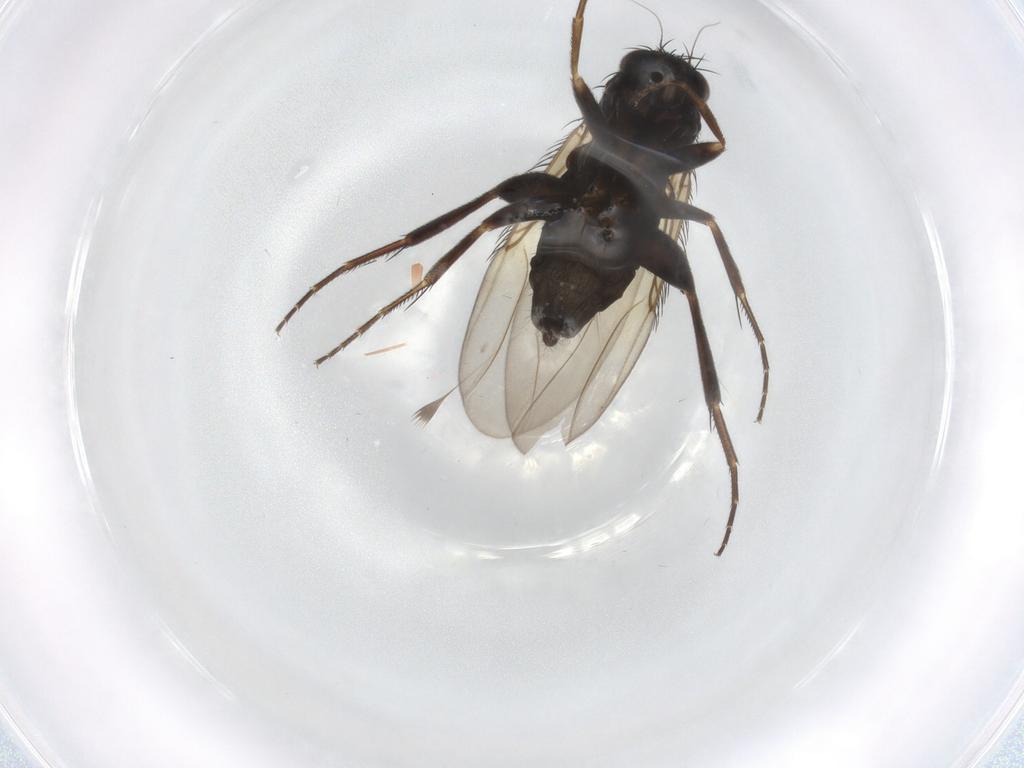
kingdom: Animalia
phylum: Arthropoda
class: Insecta
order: Diptera
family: Phoridae
